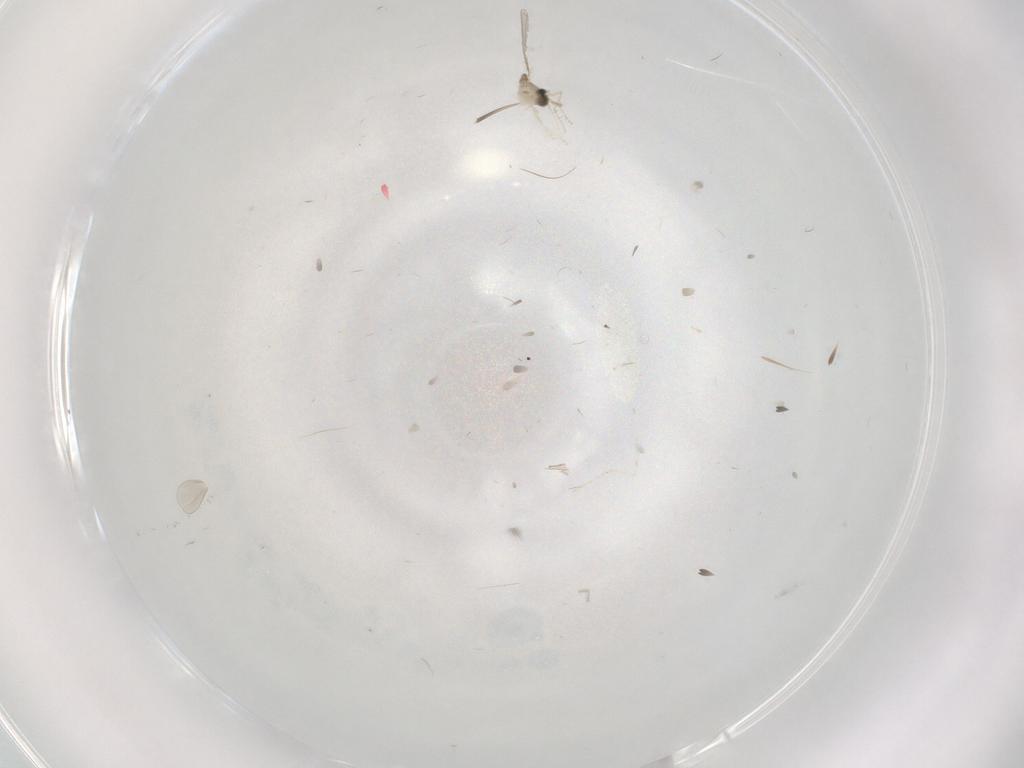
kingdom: Animalia
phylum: Arthropoda
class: Insecta
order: Diptera
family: Cecidomyiidae
